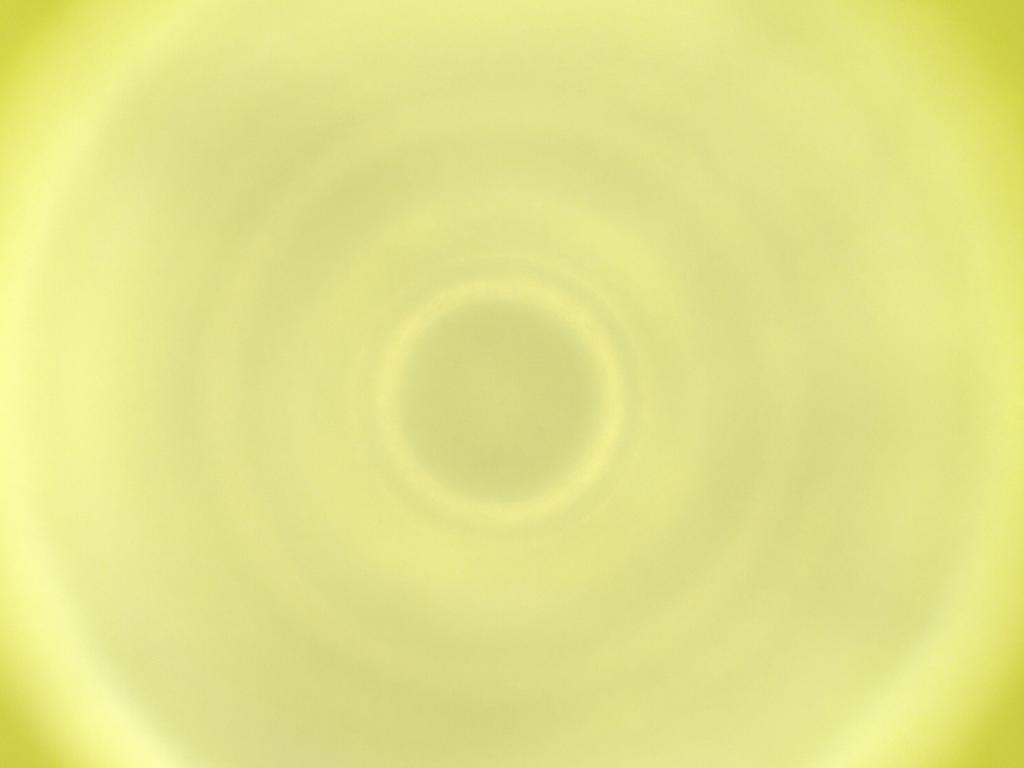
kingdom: Animalia
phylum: Arthropoda
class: Insecta
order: Diptera
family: Cecidomyiidae
